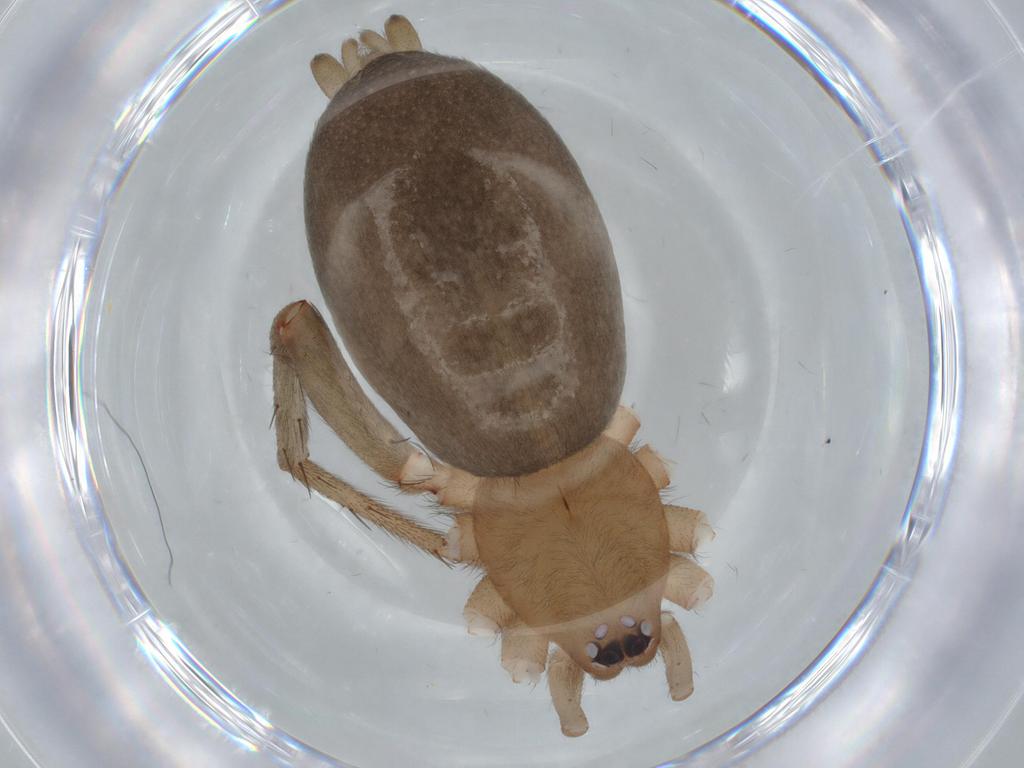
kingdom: Animalia
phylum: Arthropoda
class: Arachnida
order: Araneae
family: Gnaphosidae
